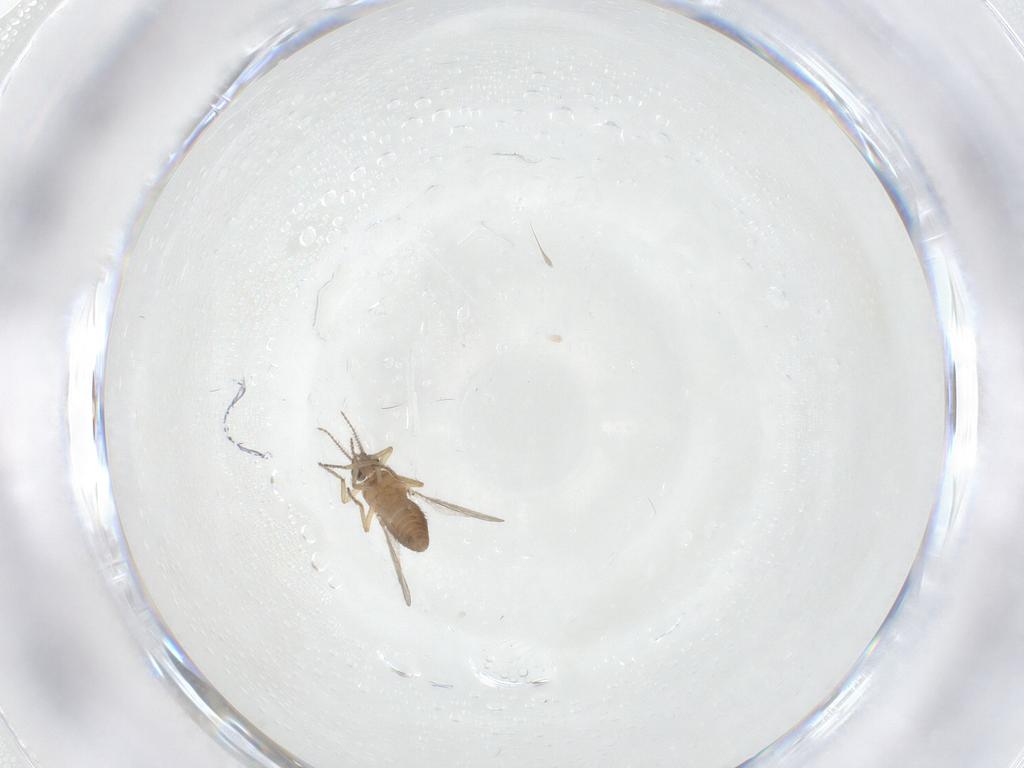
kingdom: Animalia
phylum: Arthropoda
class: Insecta
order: Diptera
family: Ceratopogonidae
